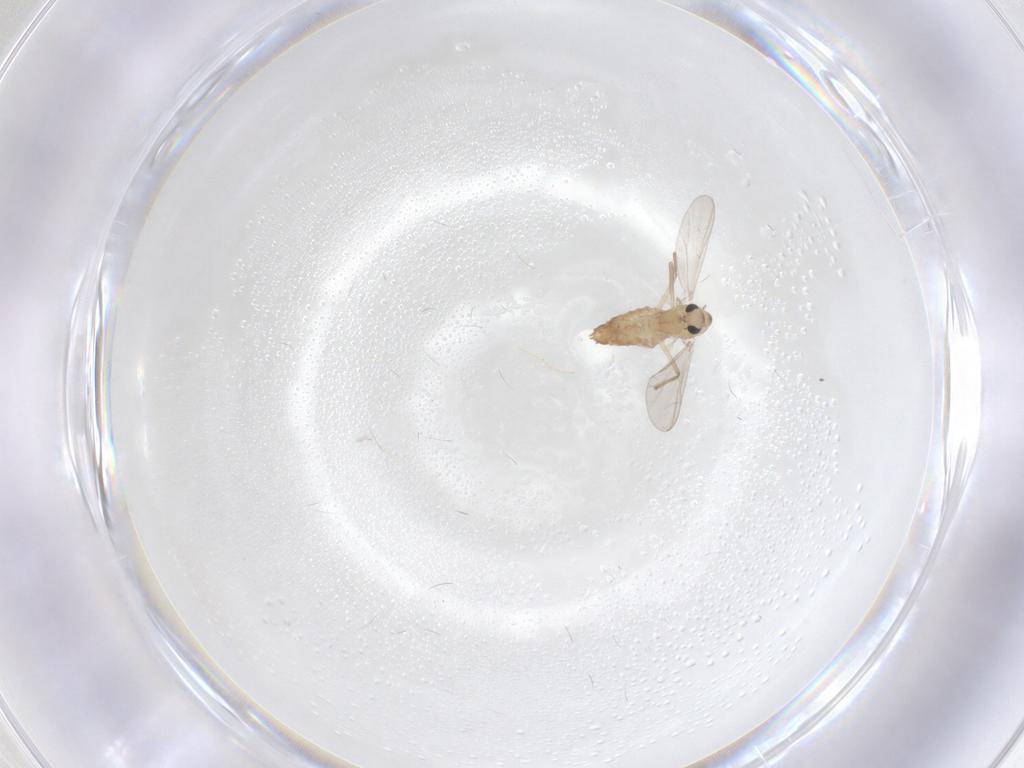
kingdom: Animalia
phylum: Arthropoda
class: Insecta
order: Diptera
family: Chironomidae
